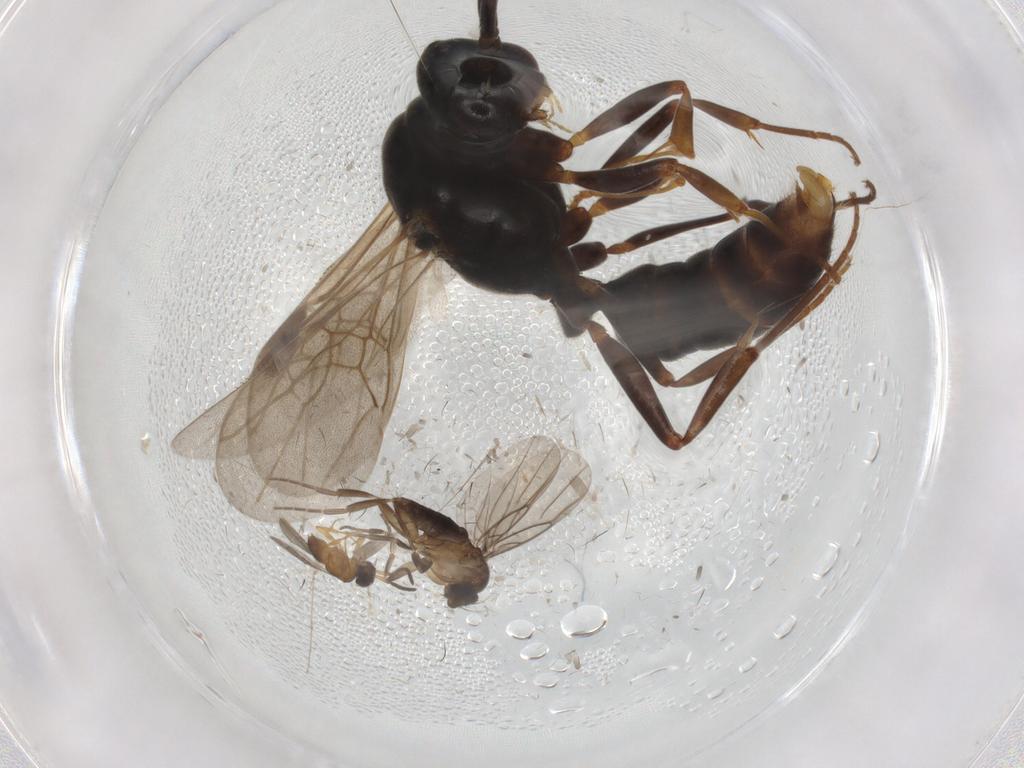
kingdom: Animalia
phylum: Arthropoda
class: Insecta
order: Hymenoptera
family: Formicidae
